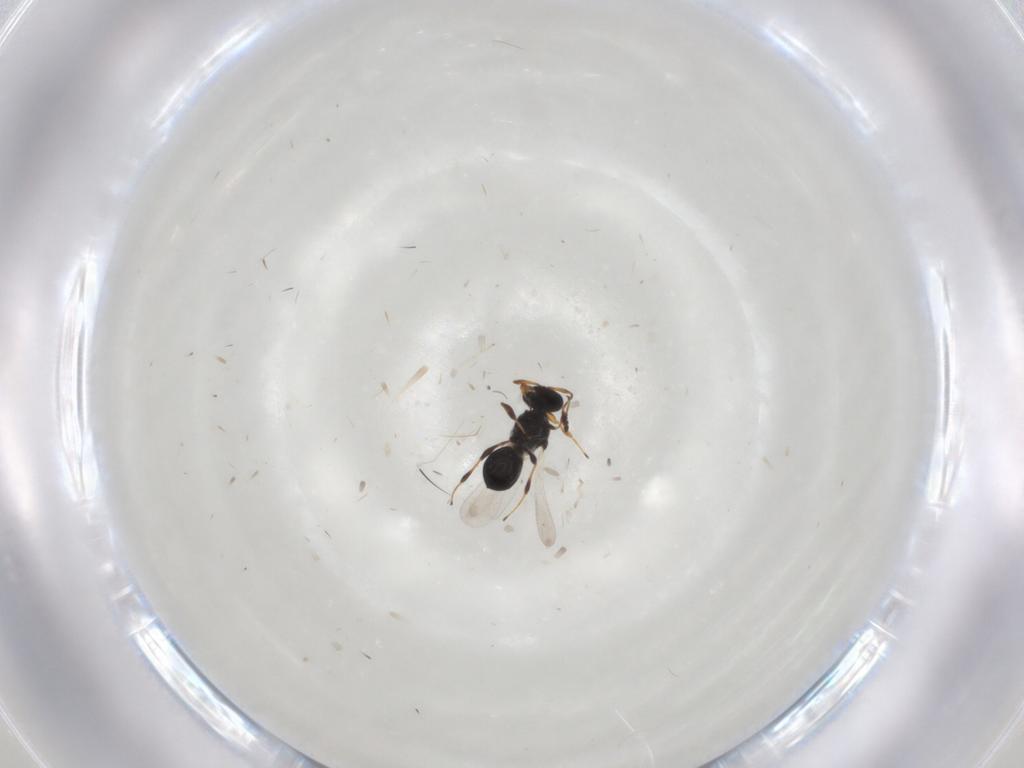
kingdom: Animalia
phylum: Arthropoda
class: Insecta
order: Hymenoptera
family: Platygastridae
